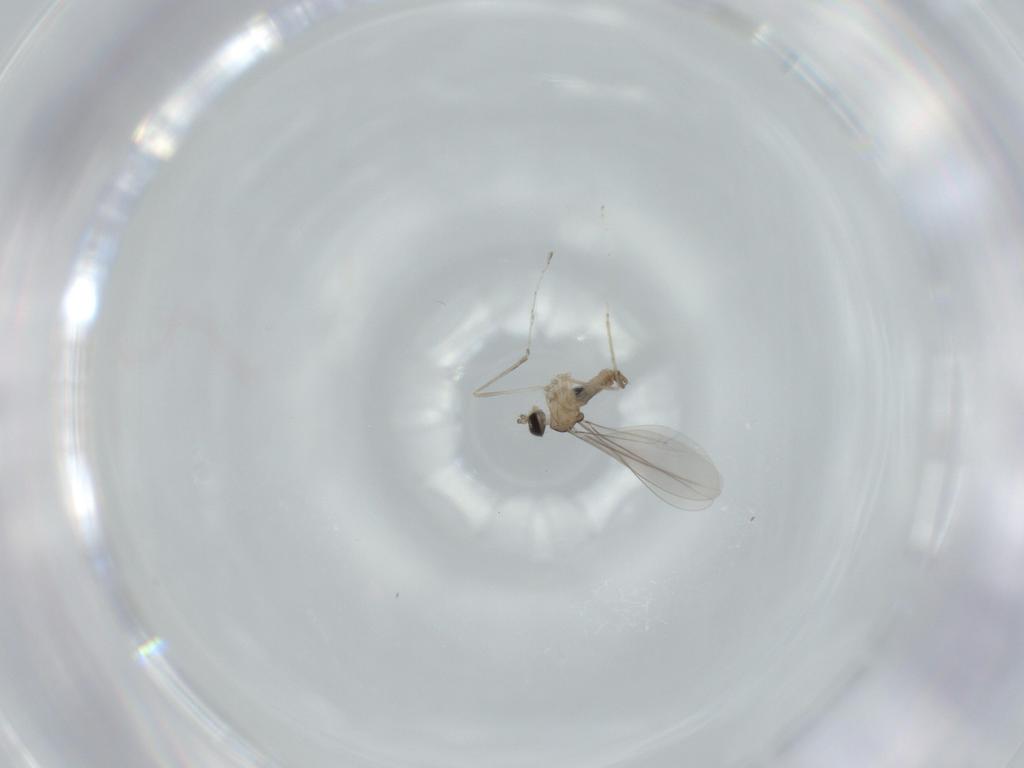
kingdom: Animalia
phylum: Arthropoda
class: Insecta
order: Diptera
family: Cecidomyiidae
